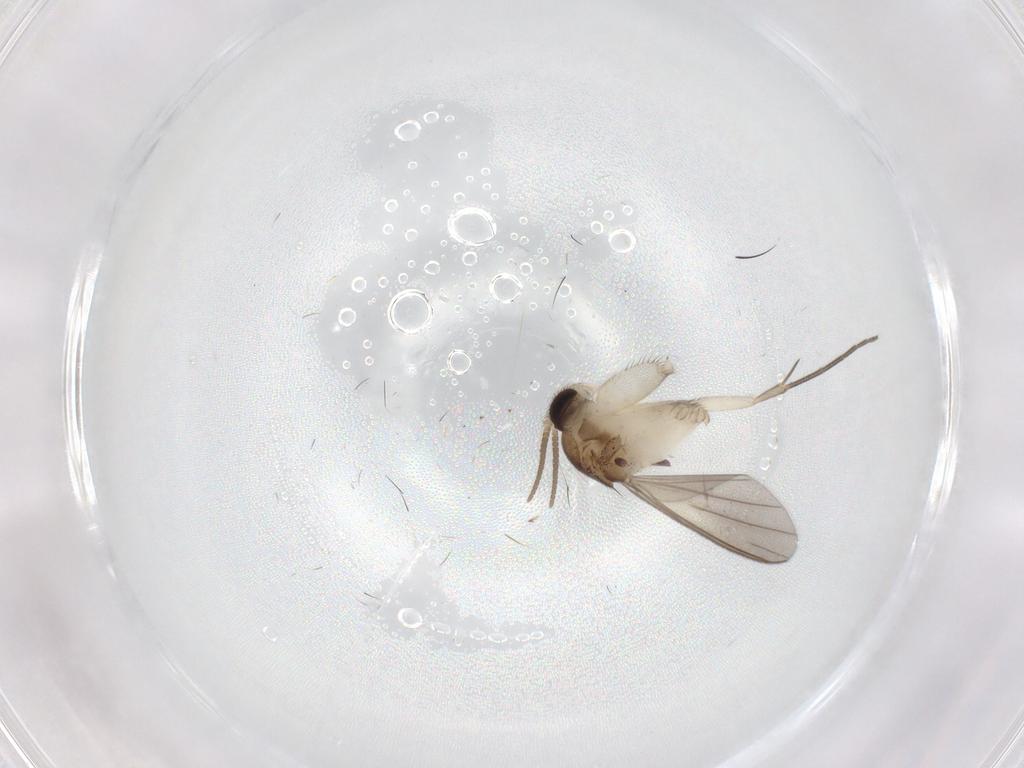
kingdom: Animalia
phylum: Arthropoda
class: Insecta
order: Diptera
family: Mycetophilidae
